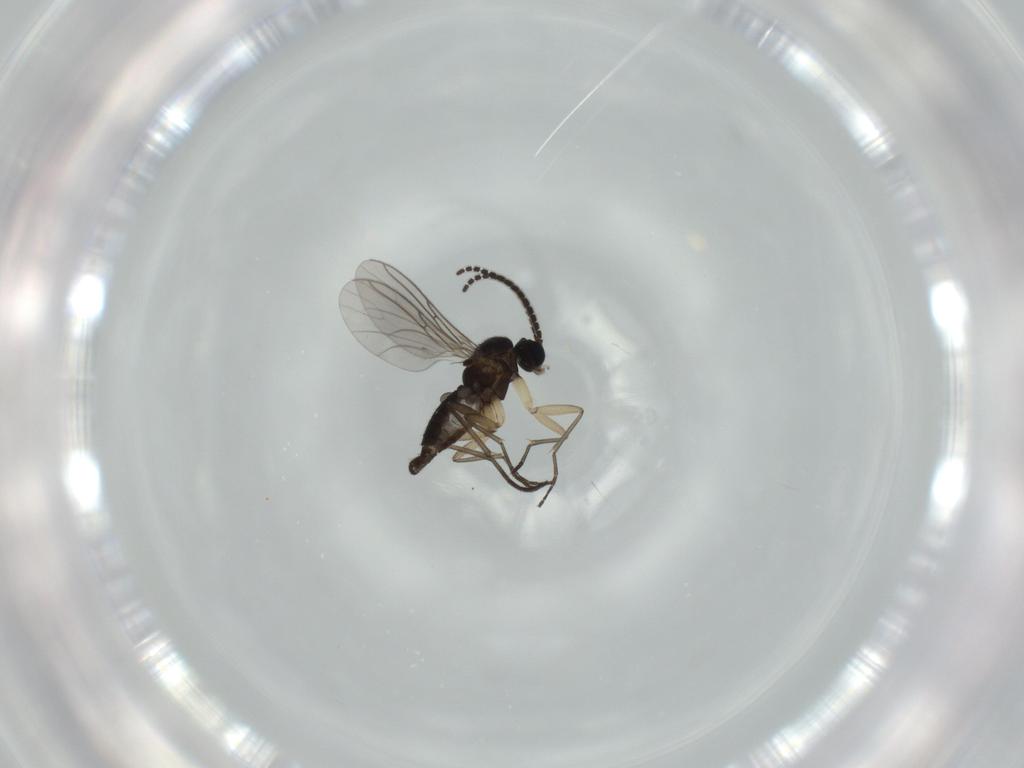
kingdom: Animalia
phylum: Arthropoda
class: Insecta
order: Diptera
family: Sciaridae
